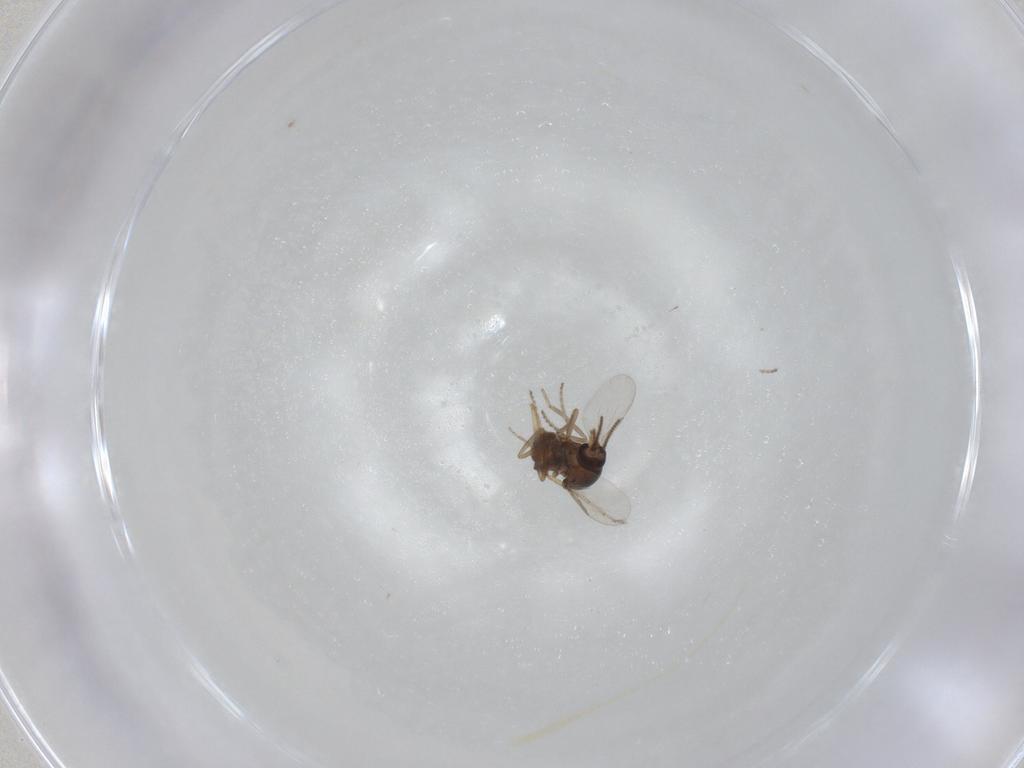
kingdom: Animalia
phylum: Arthropoda
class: Insecta
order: Diptera
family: Ceratopogonidae
